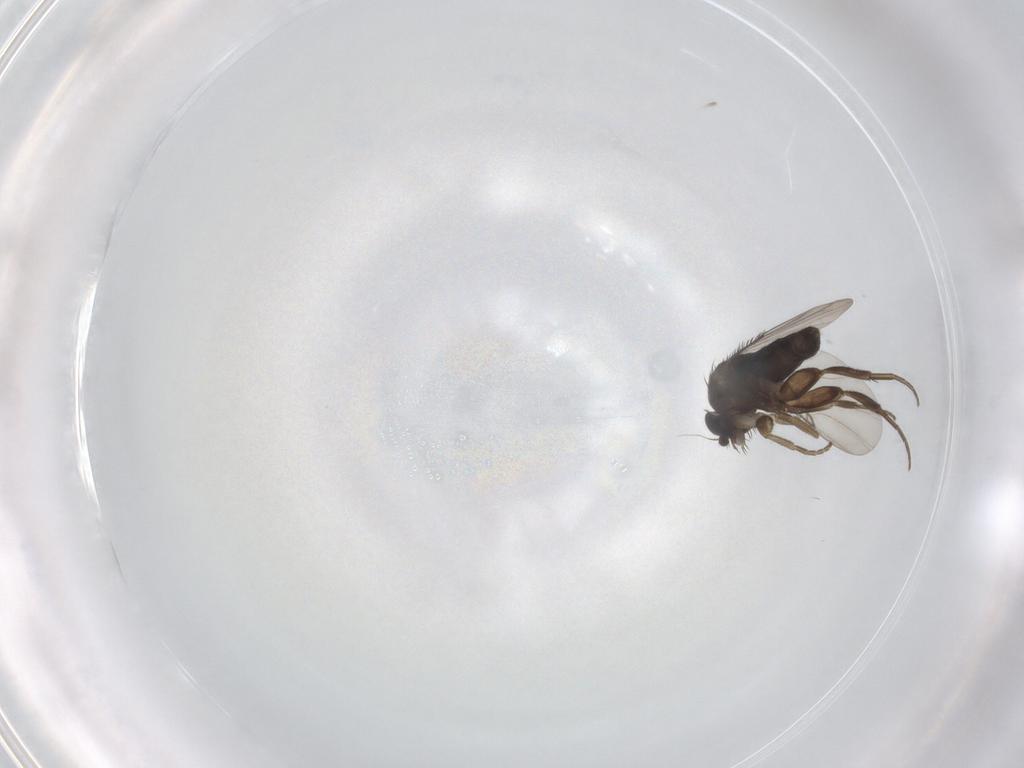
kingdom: Animalia
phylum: Arthropoda
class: Insecta
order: Diptera
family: Phoridae
